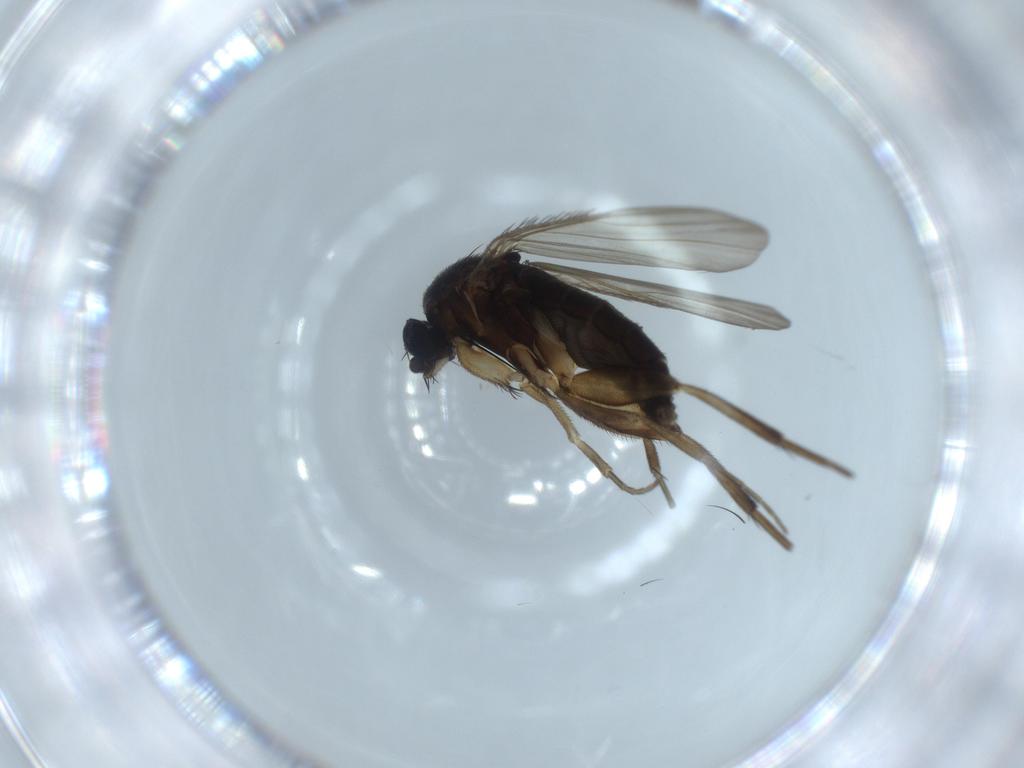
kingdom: Animalia
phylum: Arthropoda
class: Insecta
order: Diptera
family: Phoridae
